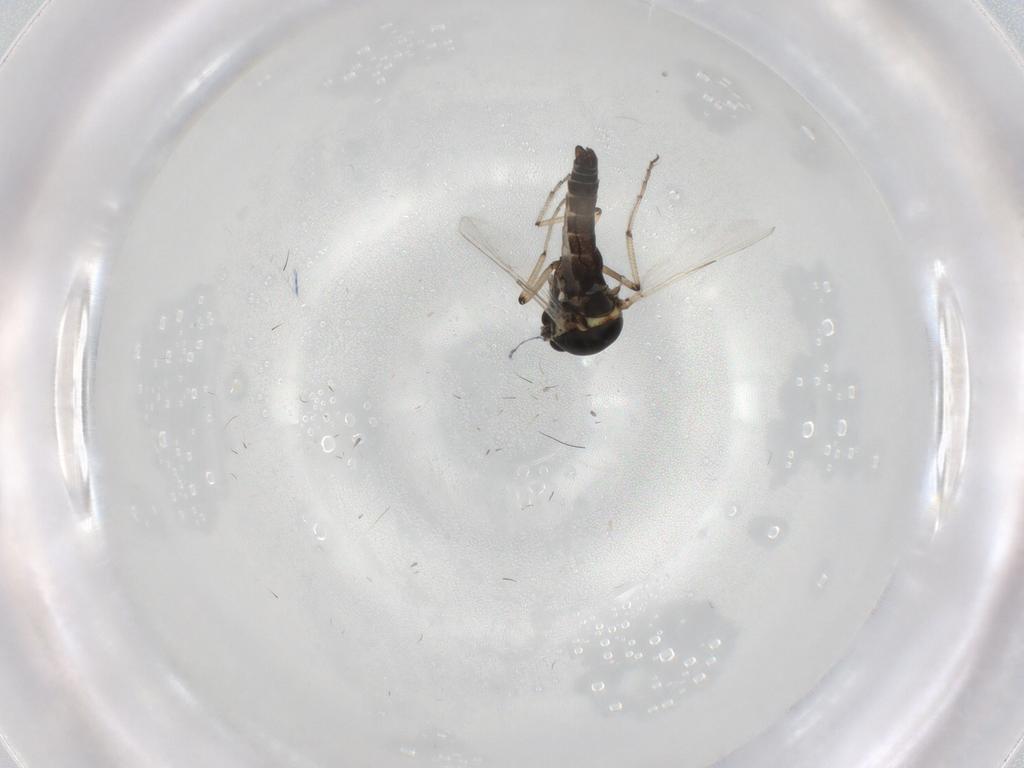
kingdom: Animalia
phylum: Arthropoda
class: Insecta
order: Diptera
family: Ceratopogonidae
